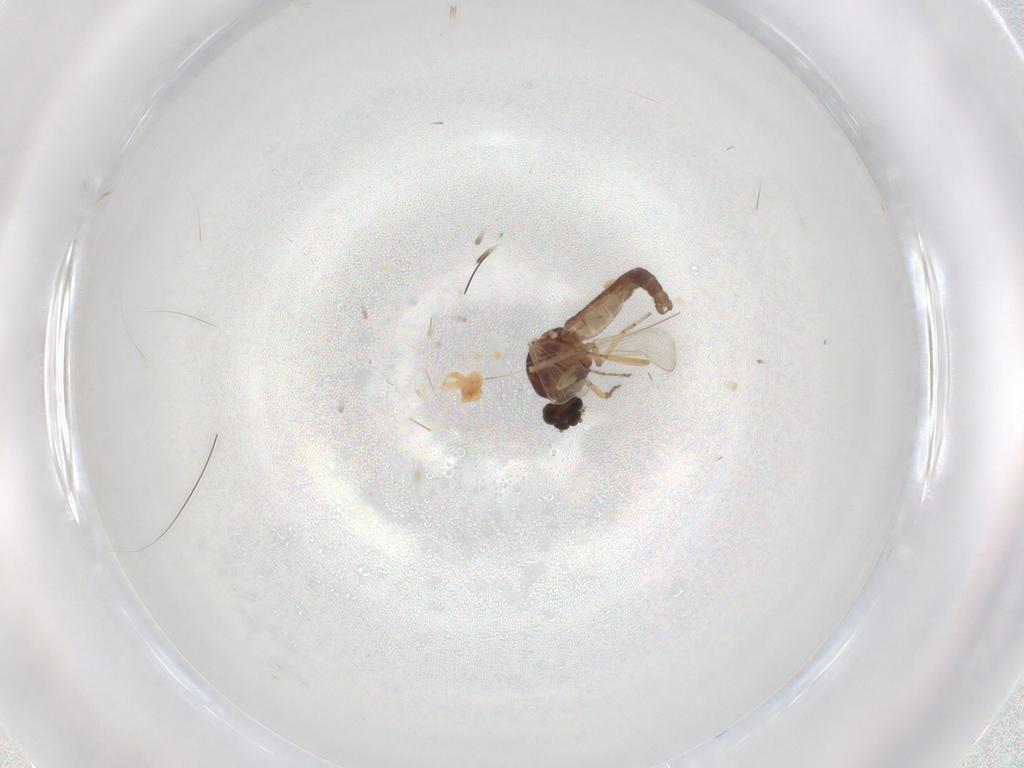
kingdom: Animalia
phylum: Arthropoda
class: Insecta
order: Diptera
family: Ceratopogonidae
